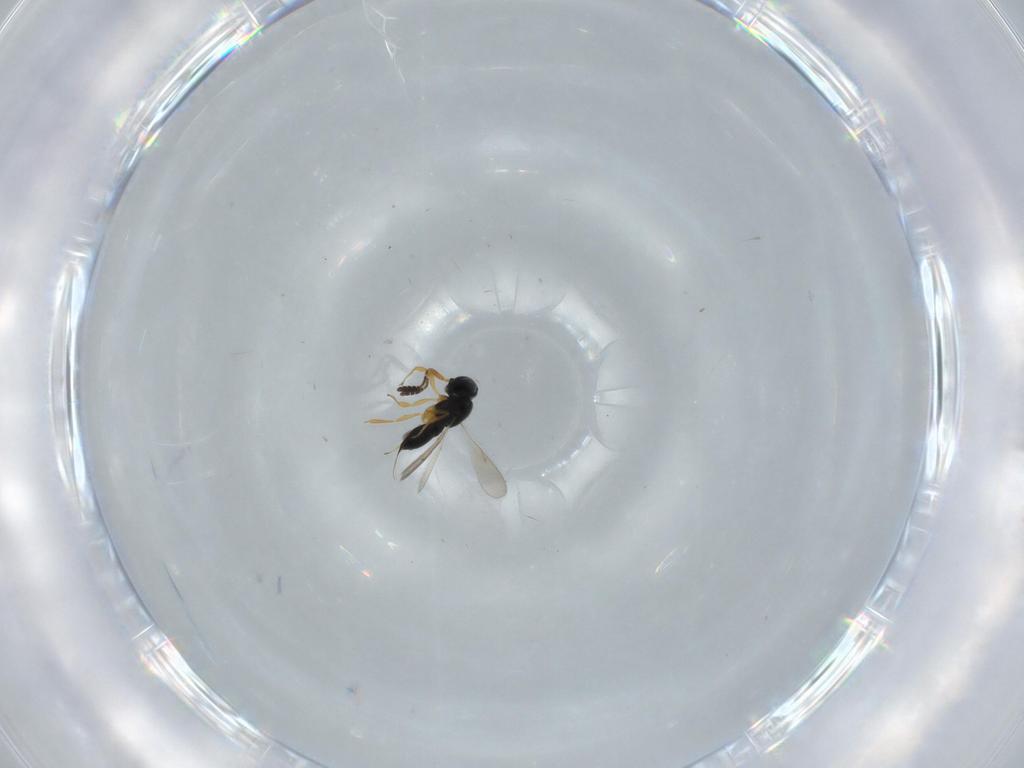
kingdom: Animalia
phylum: Arthropoda
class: Insecta
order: Hymenoptera
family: Scelionidae
